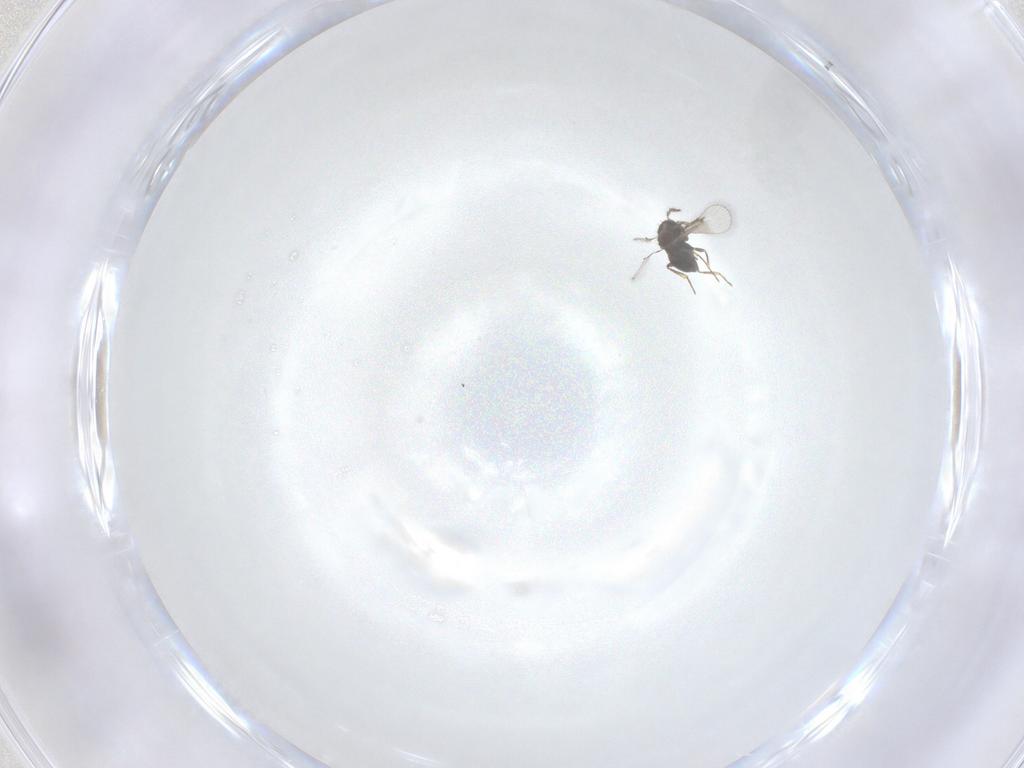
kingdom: Animalia
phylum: Arthropoda
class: Insecta
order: Hymenoptera
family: Trichogrammatidae
